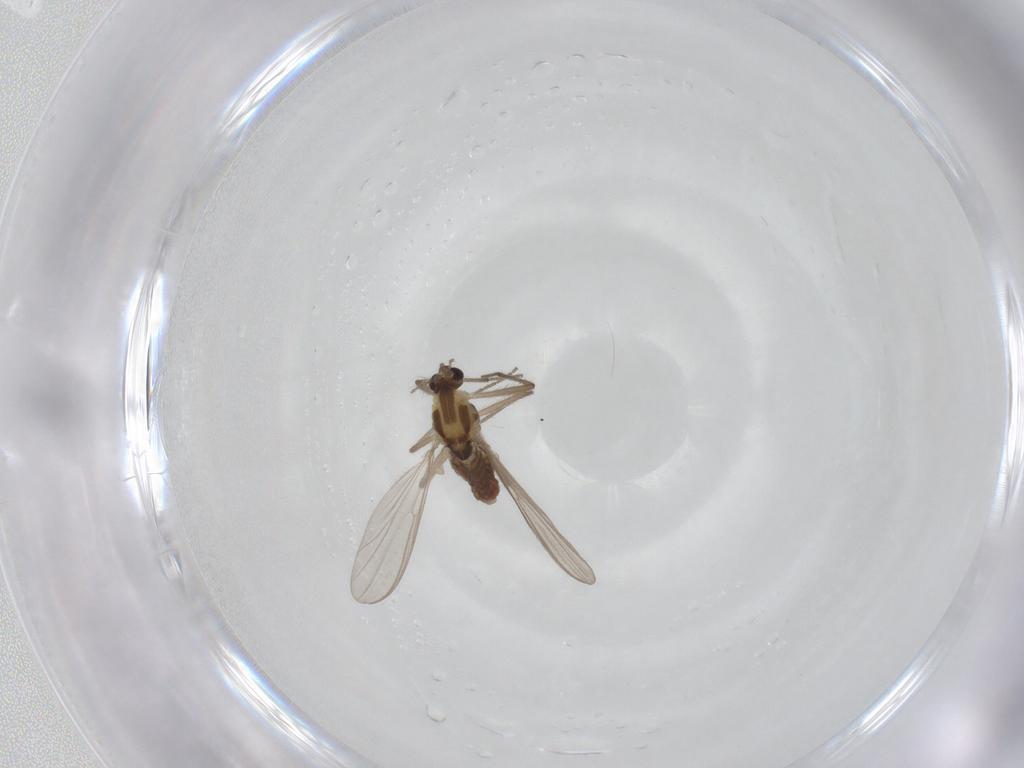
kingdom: Animalia
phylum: Arthropoda
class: Insecta
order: Diptera
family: Chironomidae
